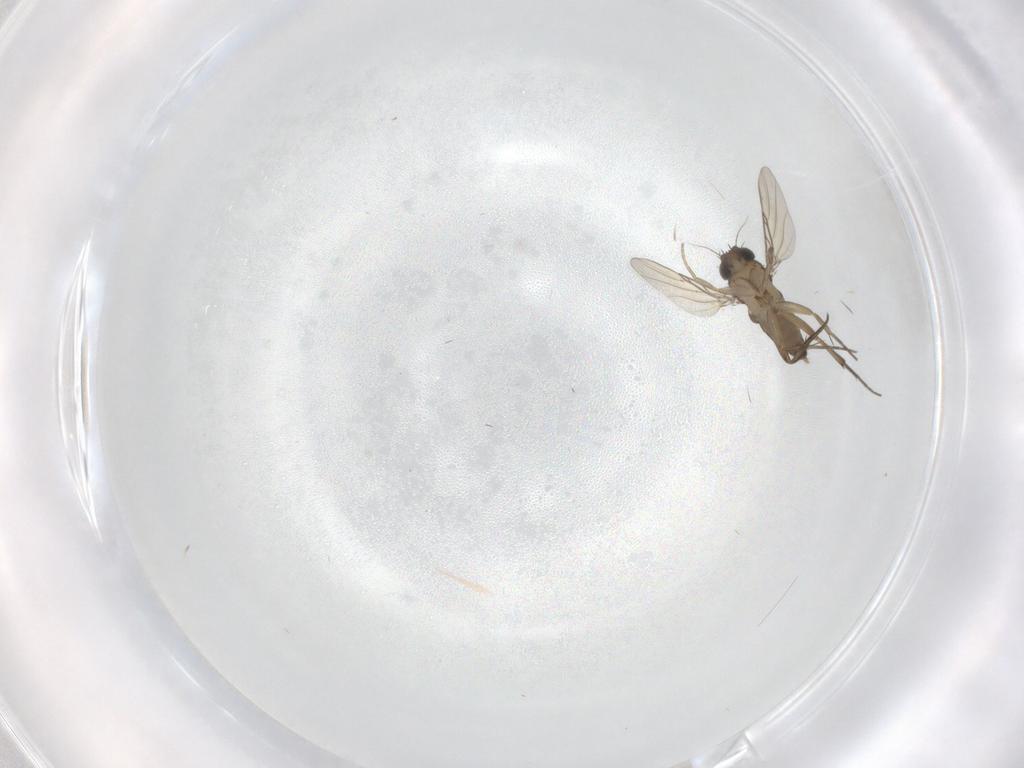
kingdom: Animalia
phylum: Arthropoda
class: Insecta
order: Diptera
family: Phoridae
